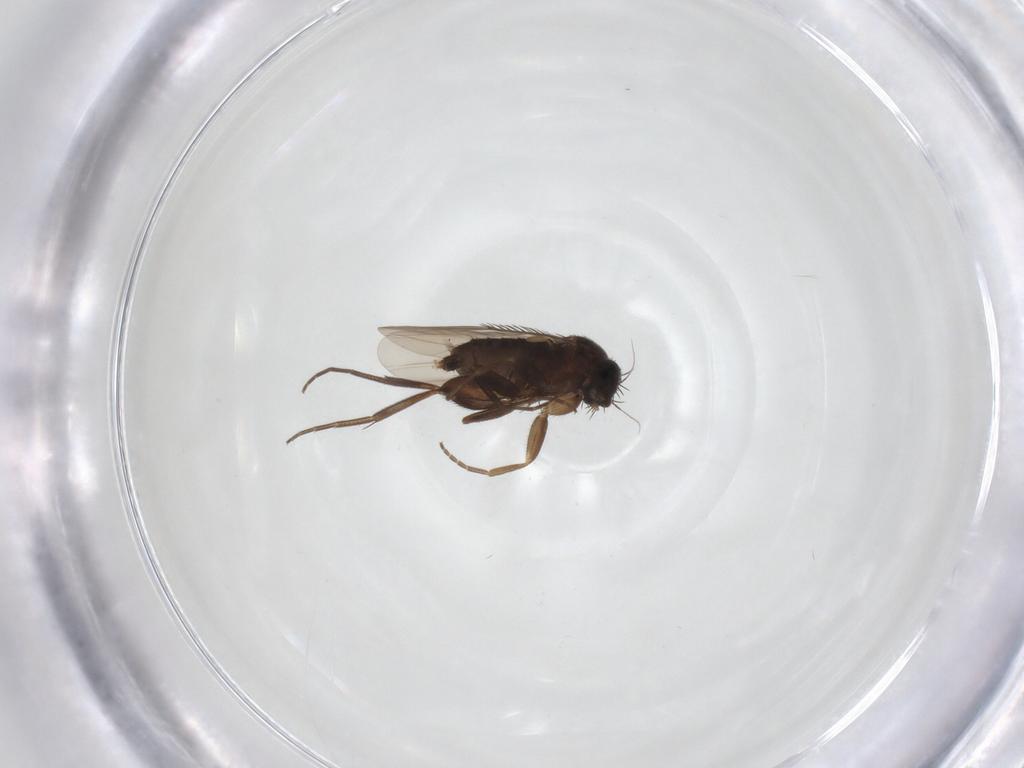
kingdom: Animalia
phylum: Arthropoda
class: Insecta
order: Diptera
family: Phoridae
